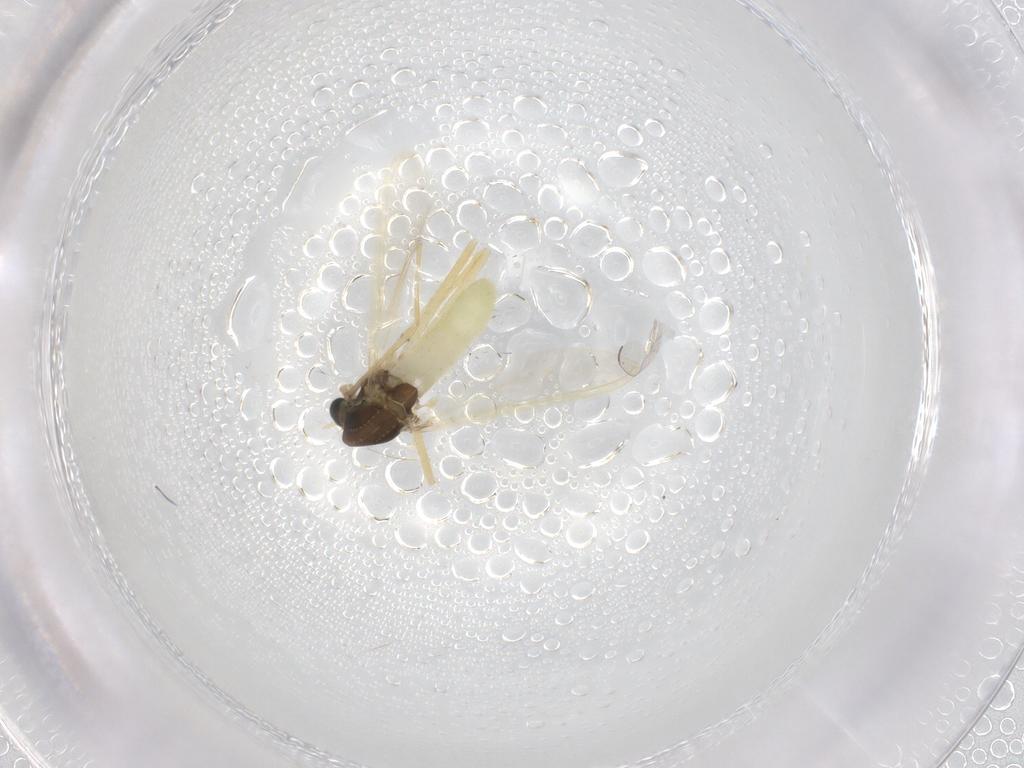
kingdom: Animalia
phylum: Arthropoda
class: Insecta
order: Diptera
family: Chironomidae
